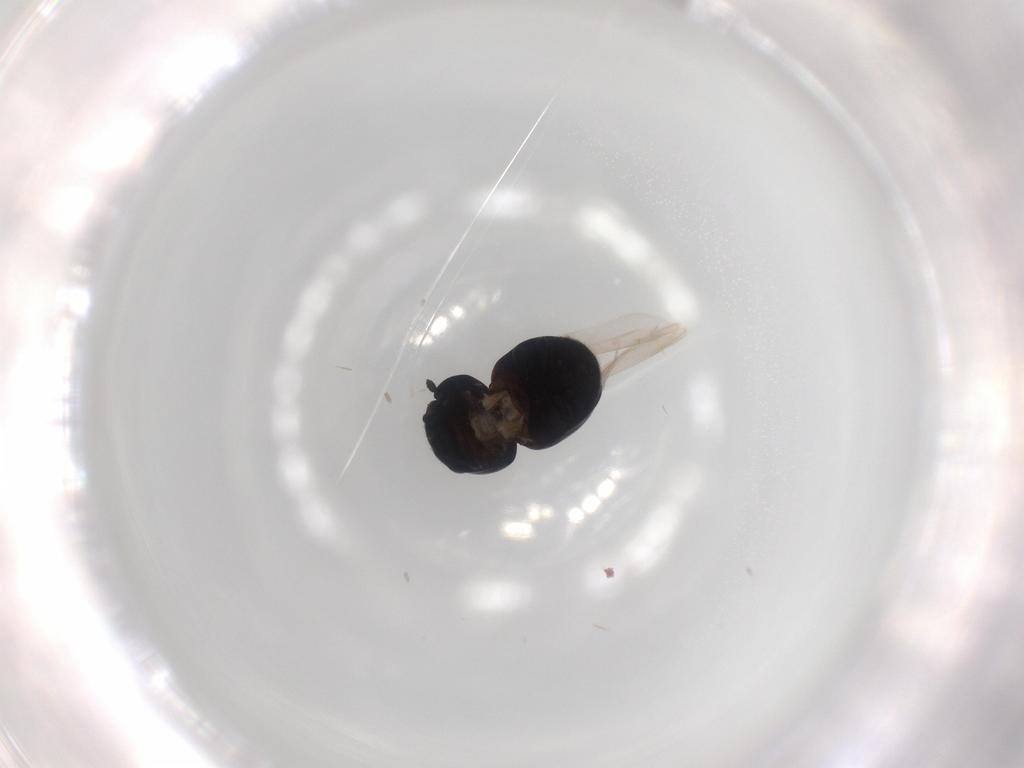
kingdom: Animalia
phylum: Arthropoda
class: Insecta
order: Coleoptera
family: Cybocephalidae
